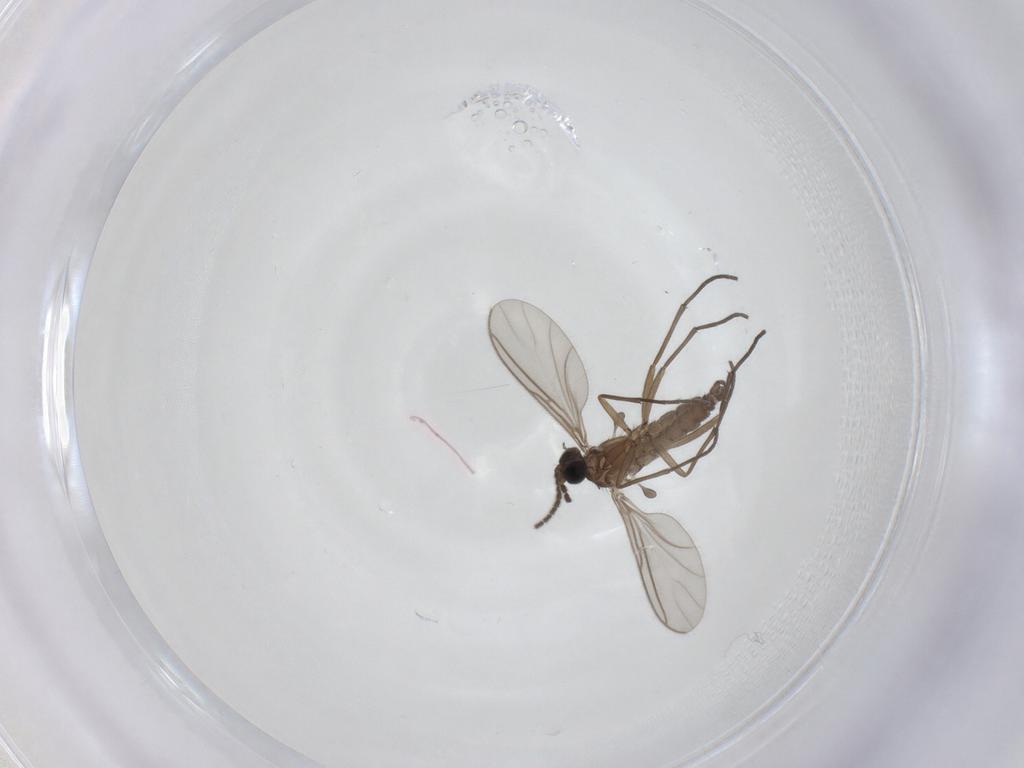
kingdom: Animalia
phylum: Arthropoda
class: Insecta
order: Diptera
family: Sciaridae
